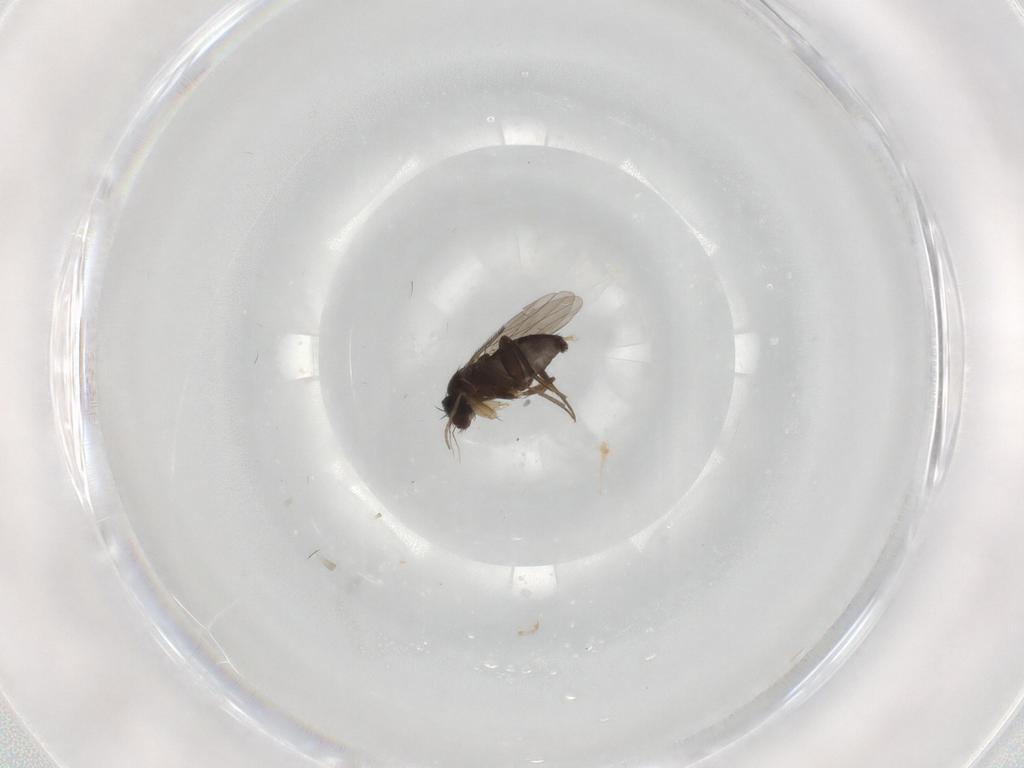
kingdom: Animalia
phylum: Arthropoda
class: Insecta
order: Diptera
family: Phoridae
